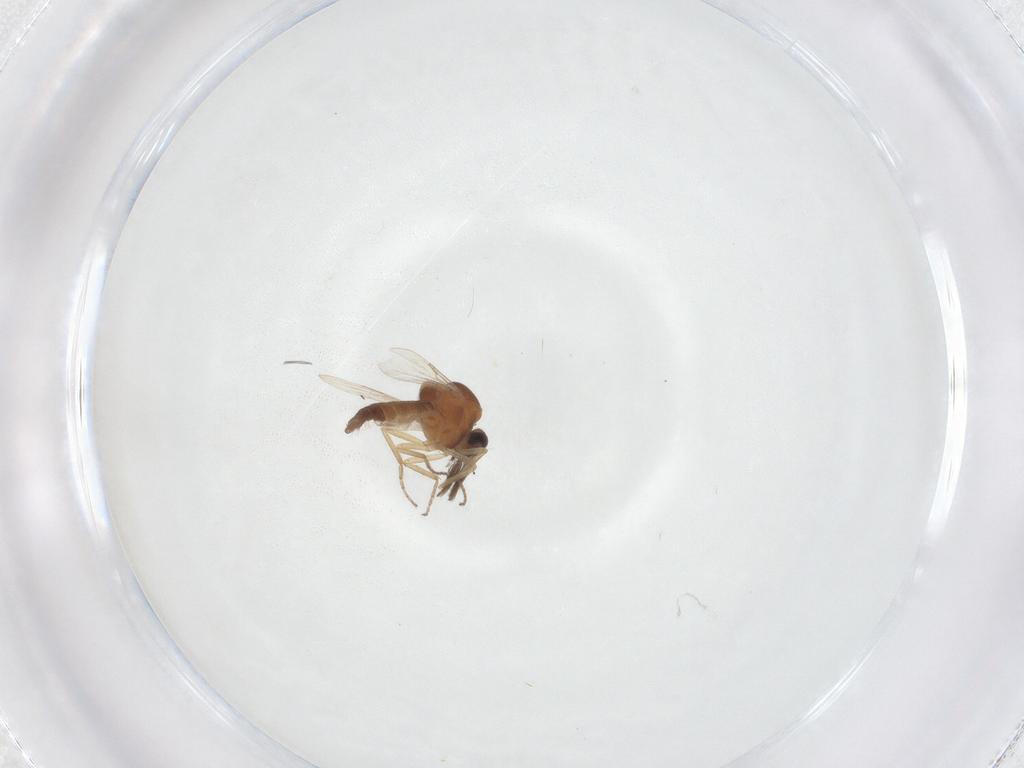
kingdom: Animalia
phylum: Arthropoda
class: Insecta
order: Diptera
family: Ceratopogonidae
